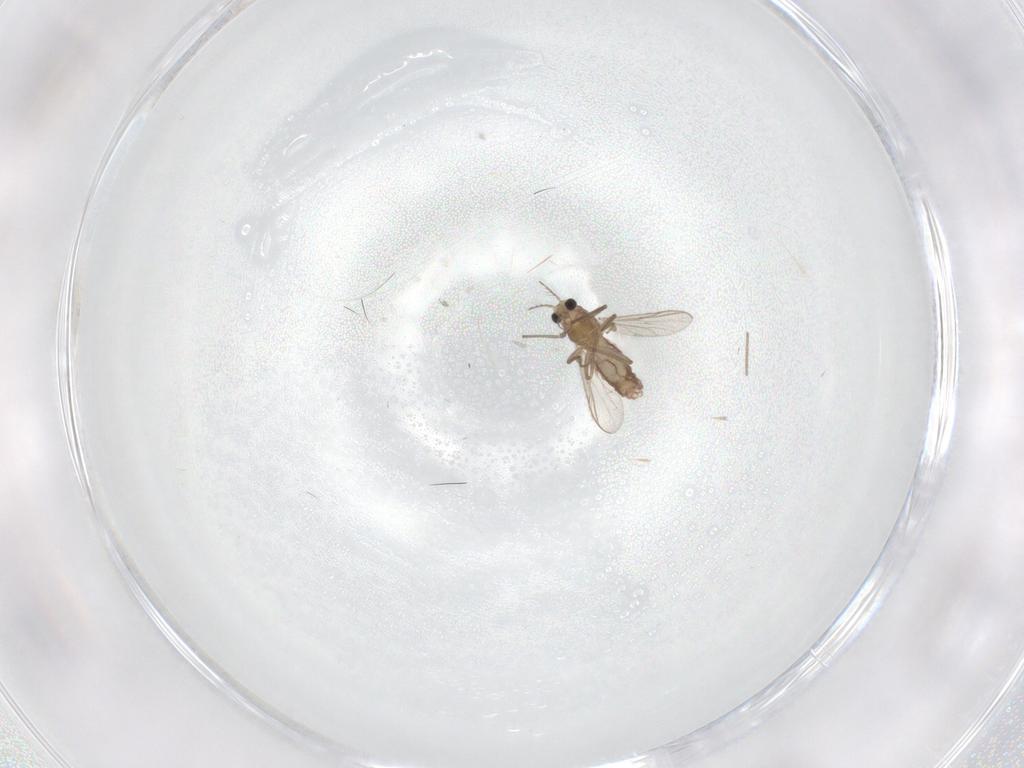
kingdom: Animalia
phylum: Arthropoda
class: Insecta
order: Diptera
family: Chironomidae
